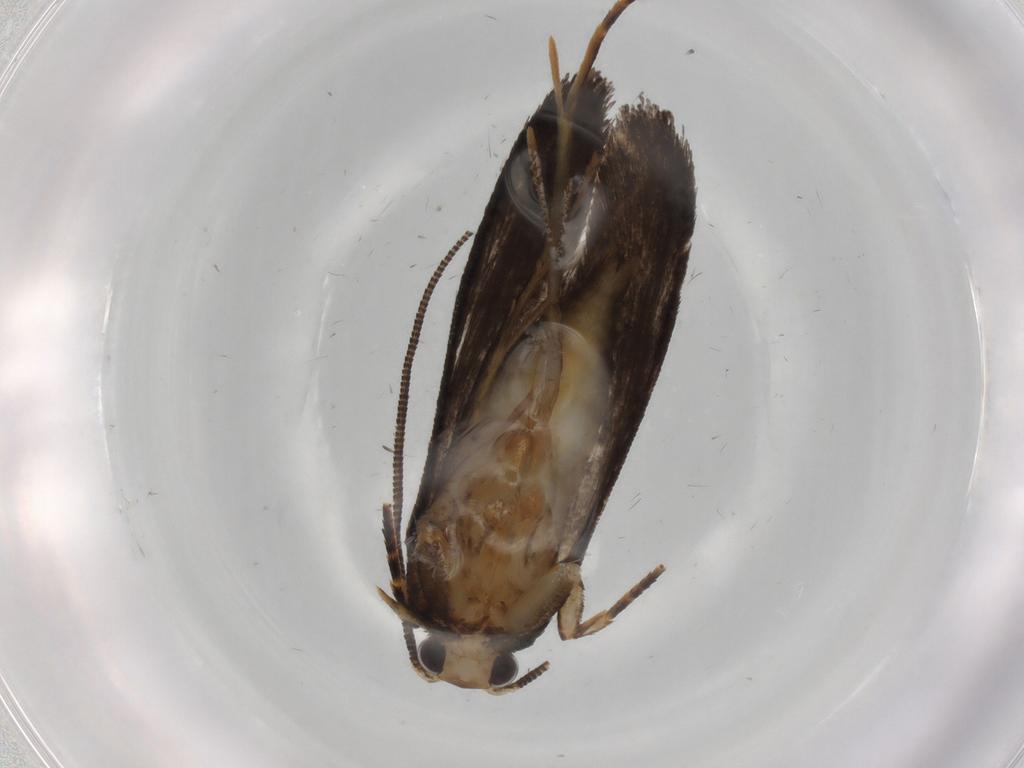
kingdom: Animalia
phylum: Arthropoda
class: Insecta
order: Lepidoptera
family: Tineidae
